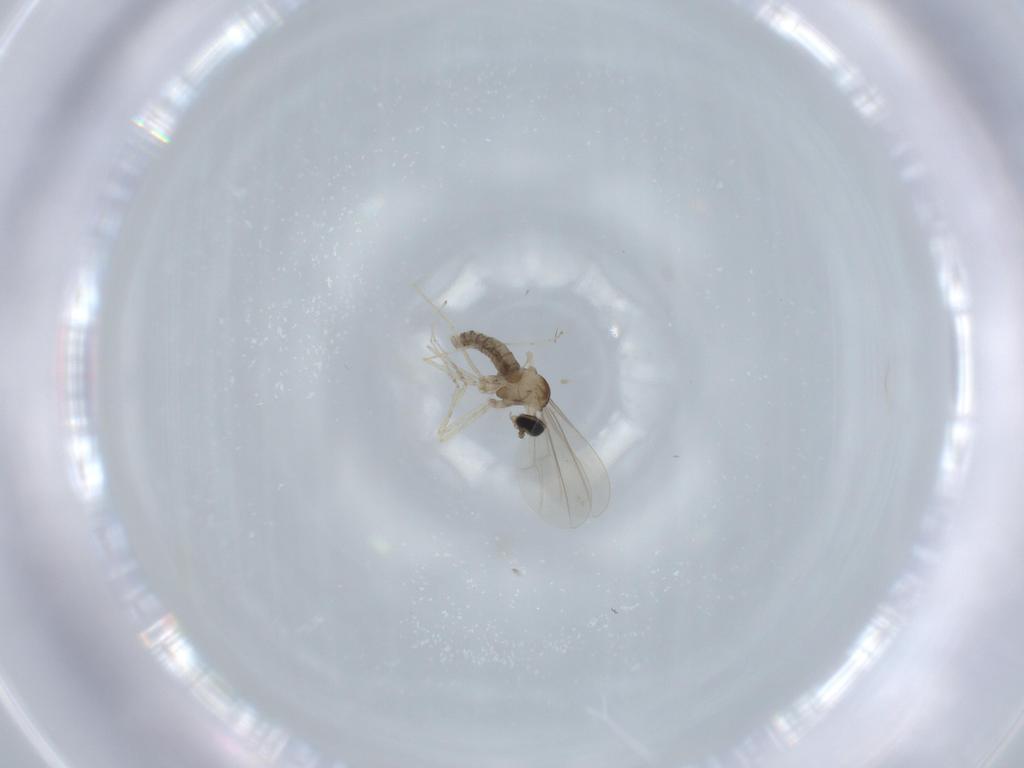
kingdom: Animalia
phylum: Arthropoda
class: Insecta
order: Diptera
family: Cecidomyiidae
